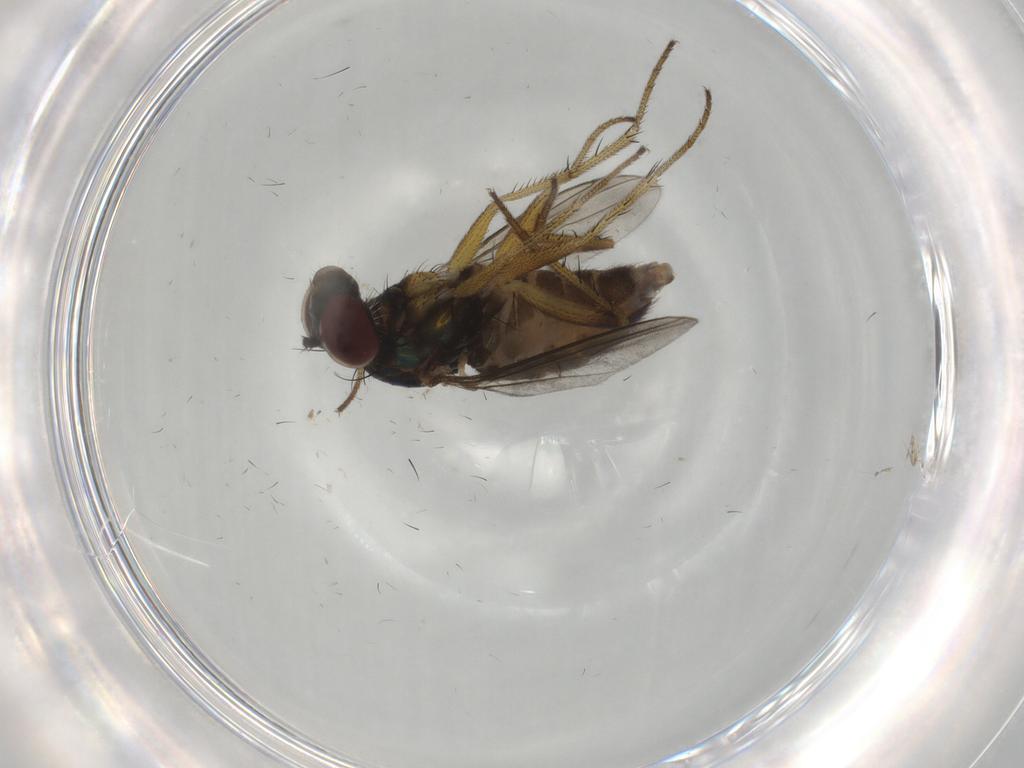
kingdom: Animalia
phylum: Arthropoda
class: Insecta
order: Diptera
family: Dolichopodidae
